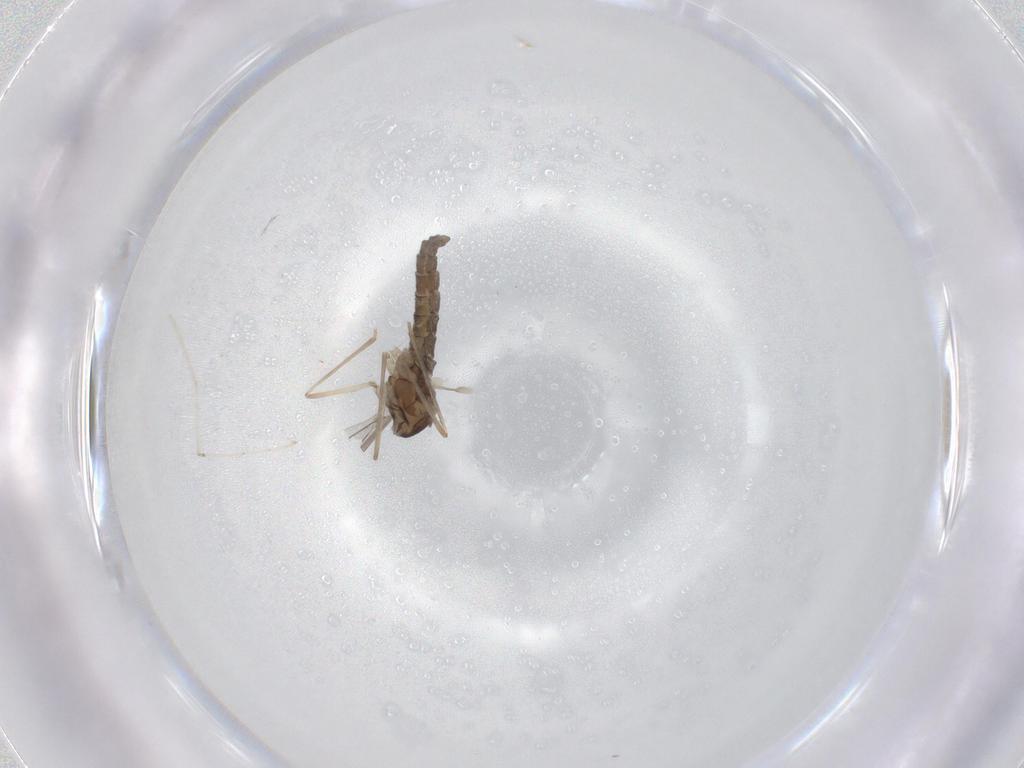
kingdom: Animalia
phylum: Arthropoda
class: Insecta
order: Diptera
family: Cecidomyiidae
